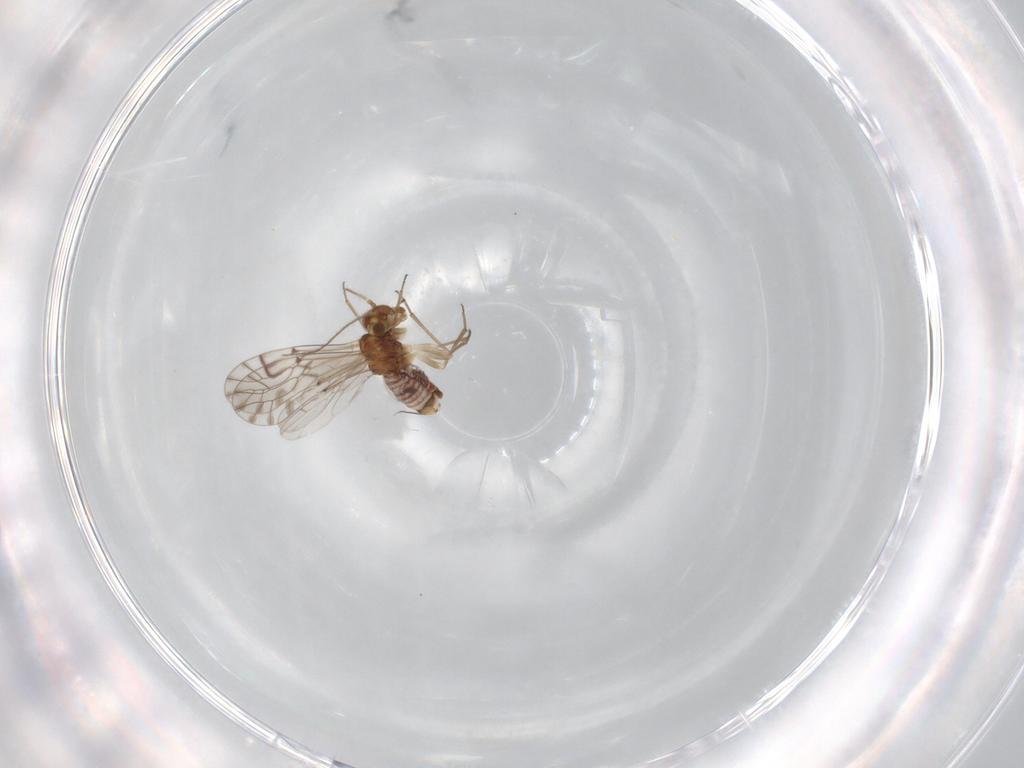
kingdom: Animalia
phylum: Arthropoda
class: Insecta
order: Psocodea
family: Lachesillidae
